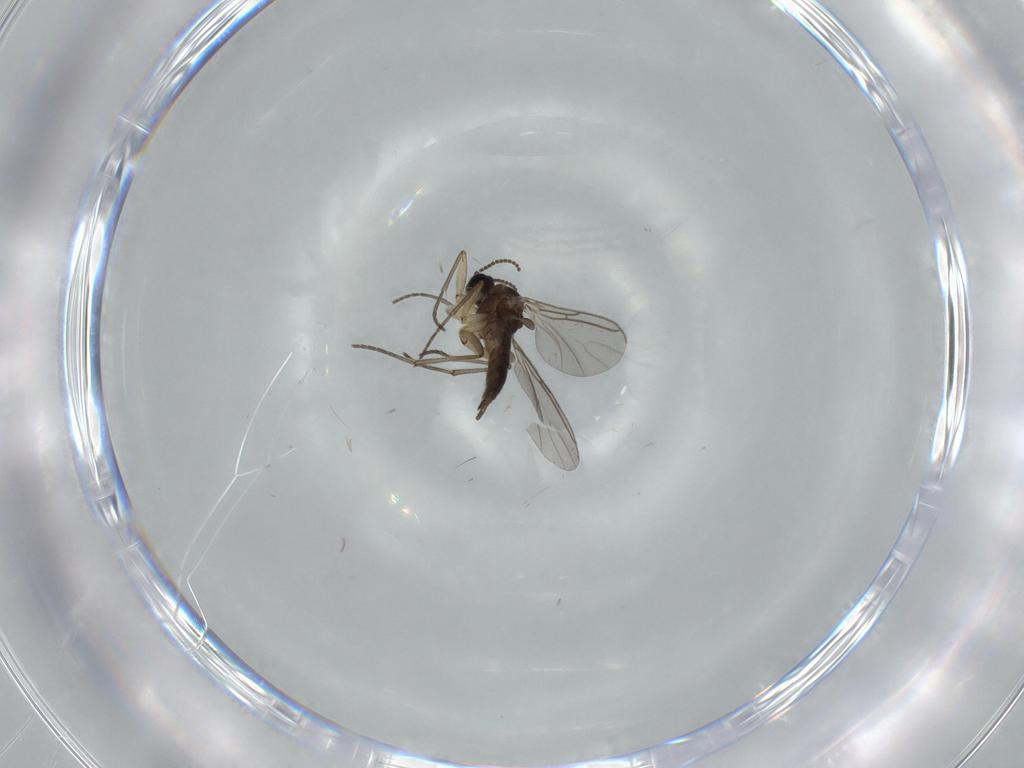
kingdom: Animalia
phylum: Arthropoda
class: Insecta
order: Diptera
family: Sciaridae
